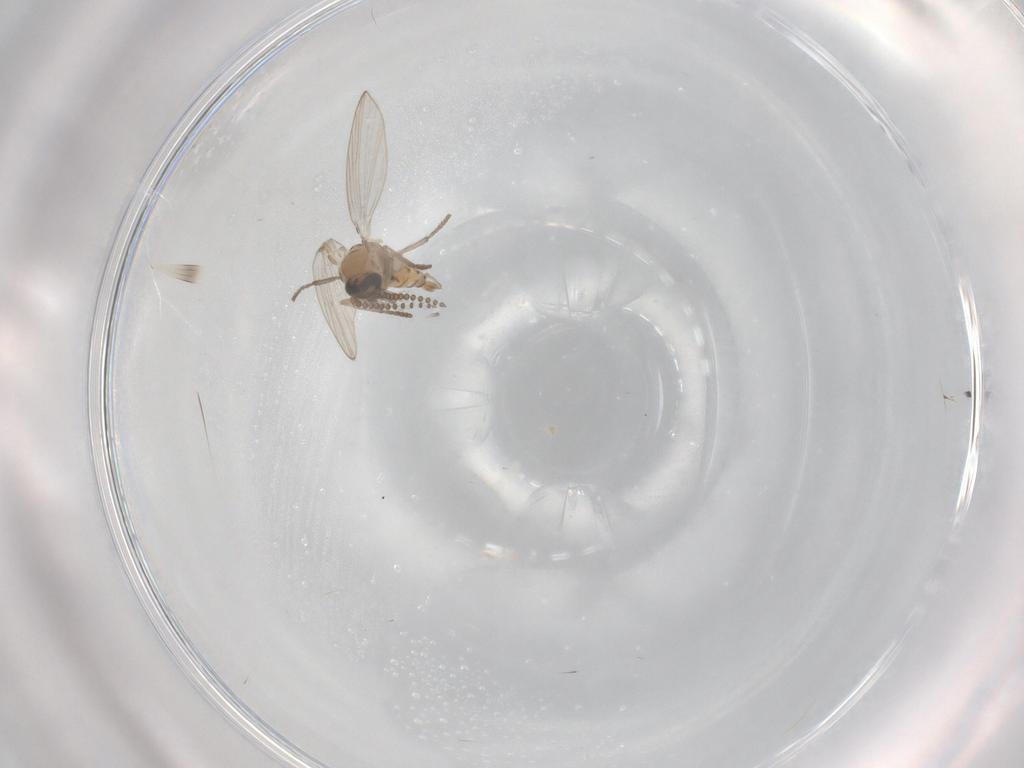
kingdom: Animalia
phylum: Arthropoda
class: Insecta
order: Diptera
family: Psychodidae
